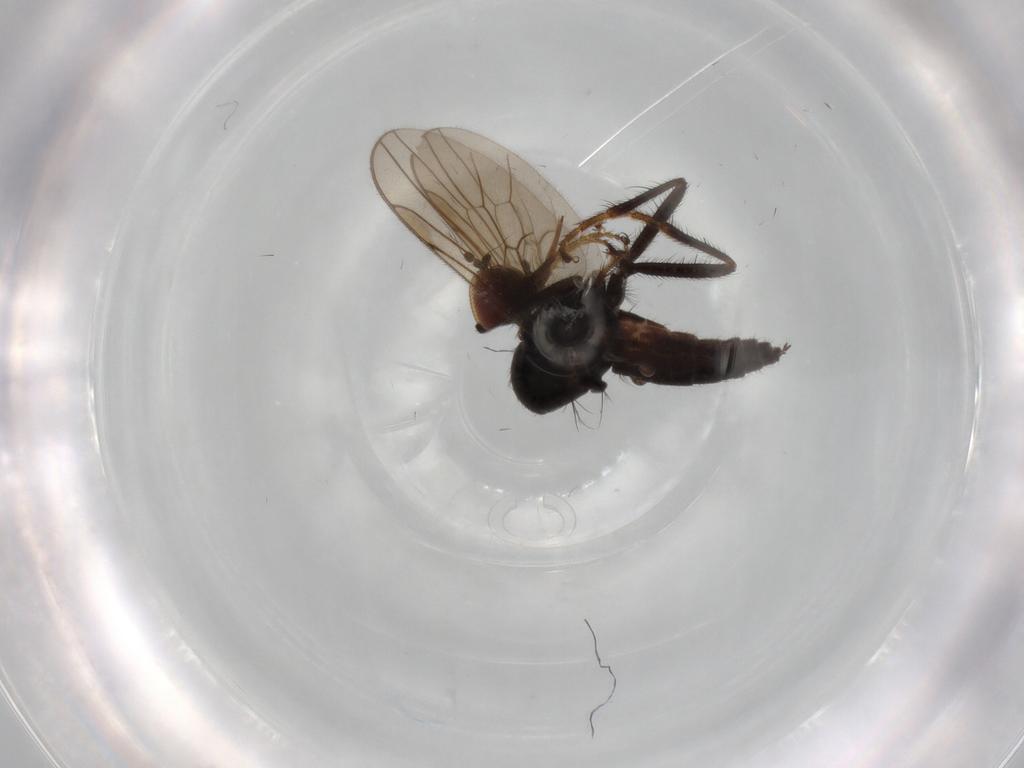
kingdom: Animalia
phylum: Arthropoda
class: Insecta
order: Diptera
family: Hybotidae
